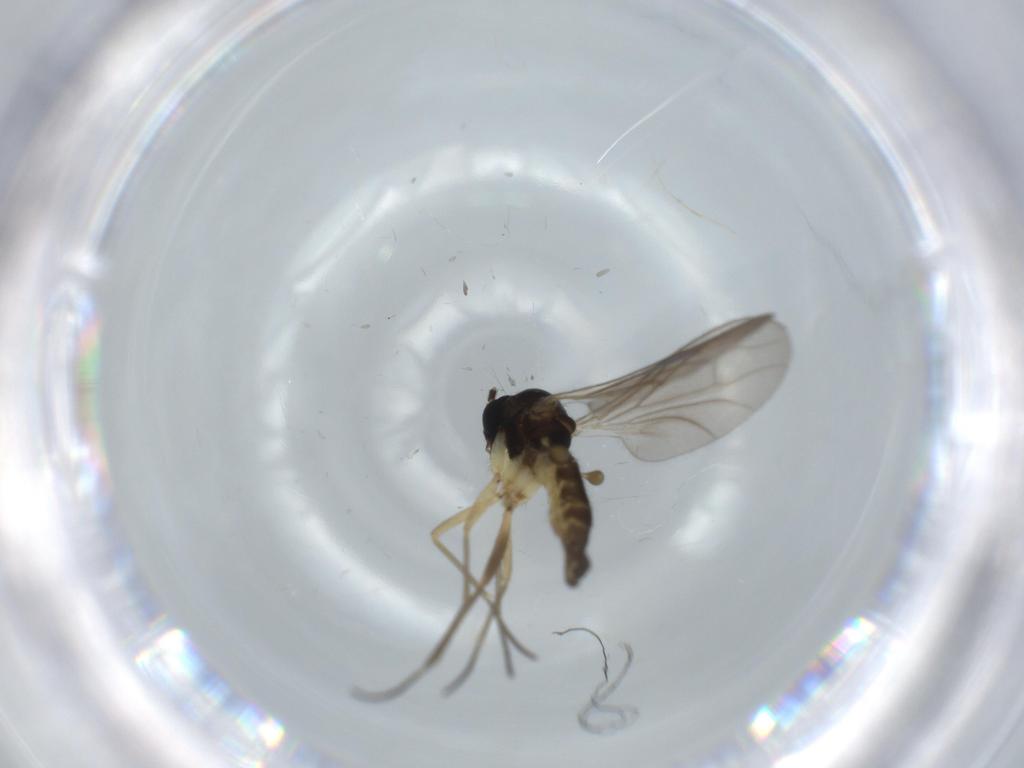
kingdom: Animalia
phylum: Arthropoda
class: Insecta
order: Diptera
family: Sciaridae
